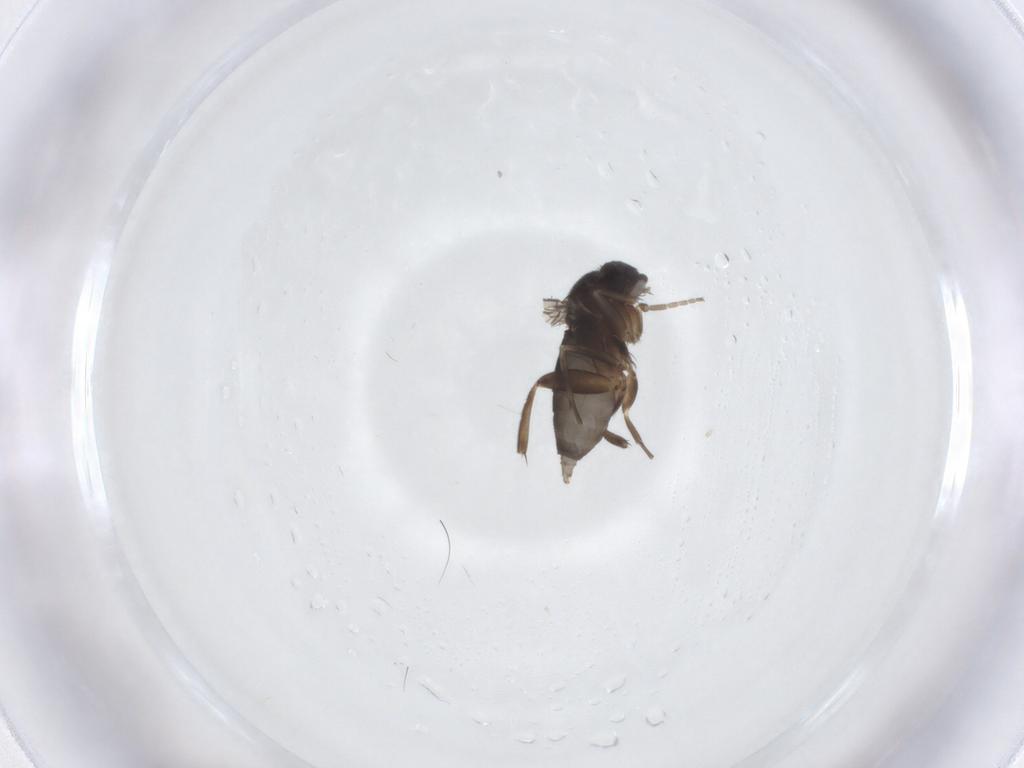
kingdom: Animalia
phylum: Arthropoda
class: Insecta
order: Diptera
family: Phoridae
